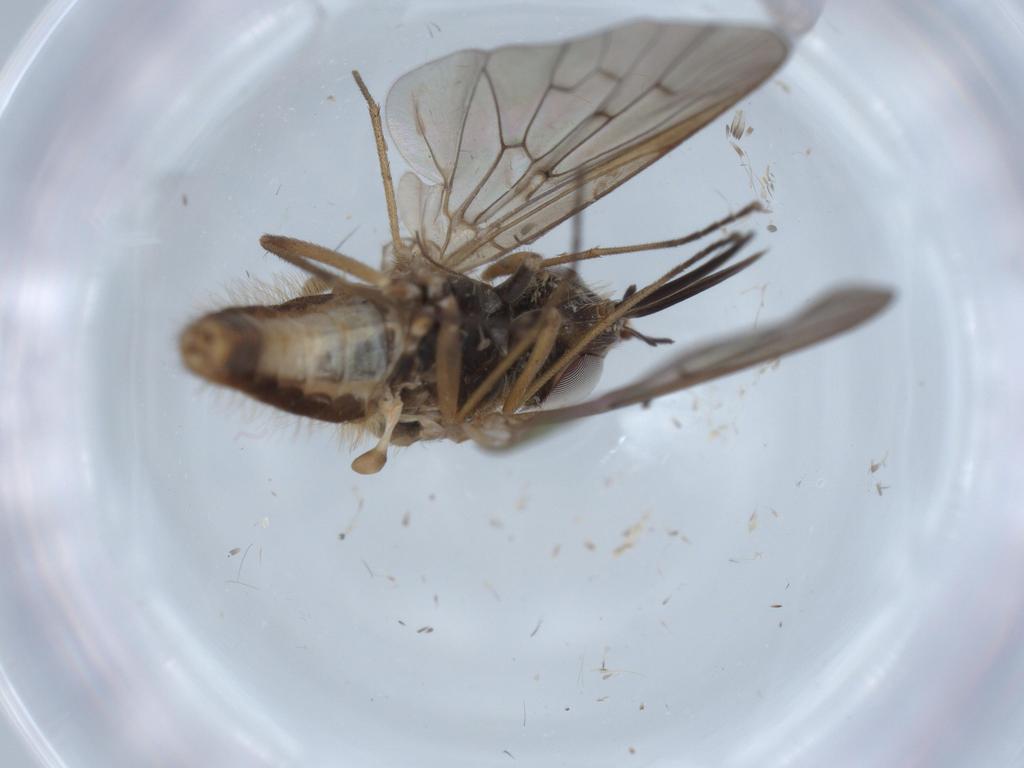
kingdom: Animalia
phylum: Arthropoda
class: Insecta
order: Diptera
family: Bombyliidae
